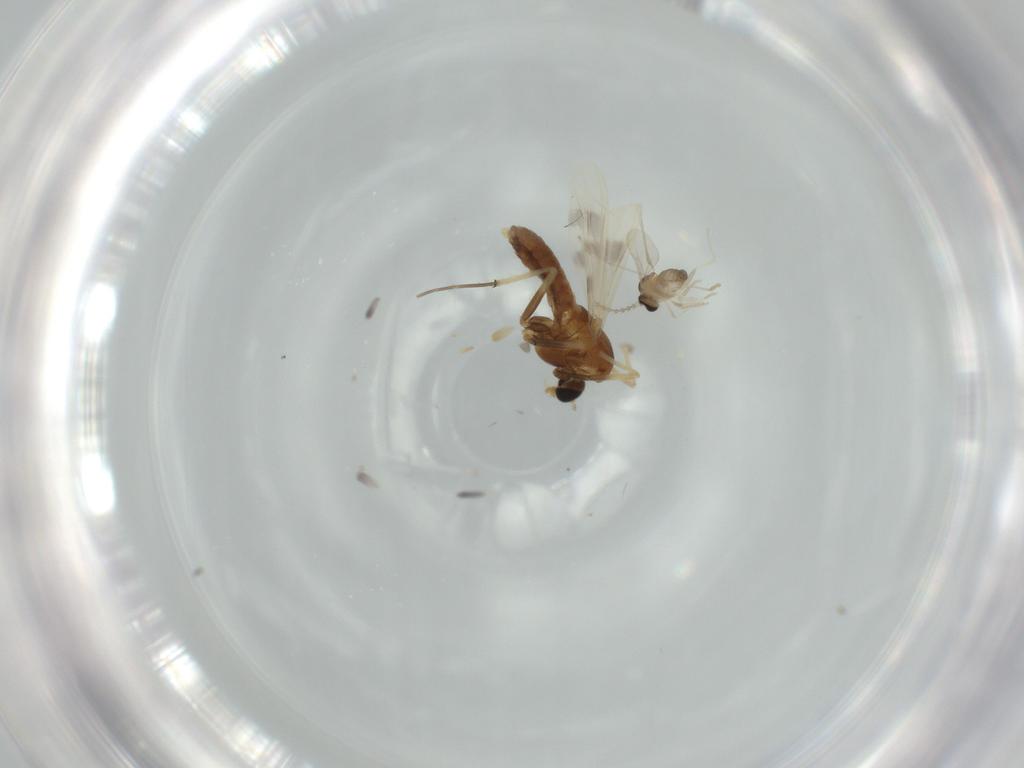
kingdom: Animalia
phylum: Arthropoda
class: Insecta
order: Diptera
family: Cecidomyiidae
